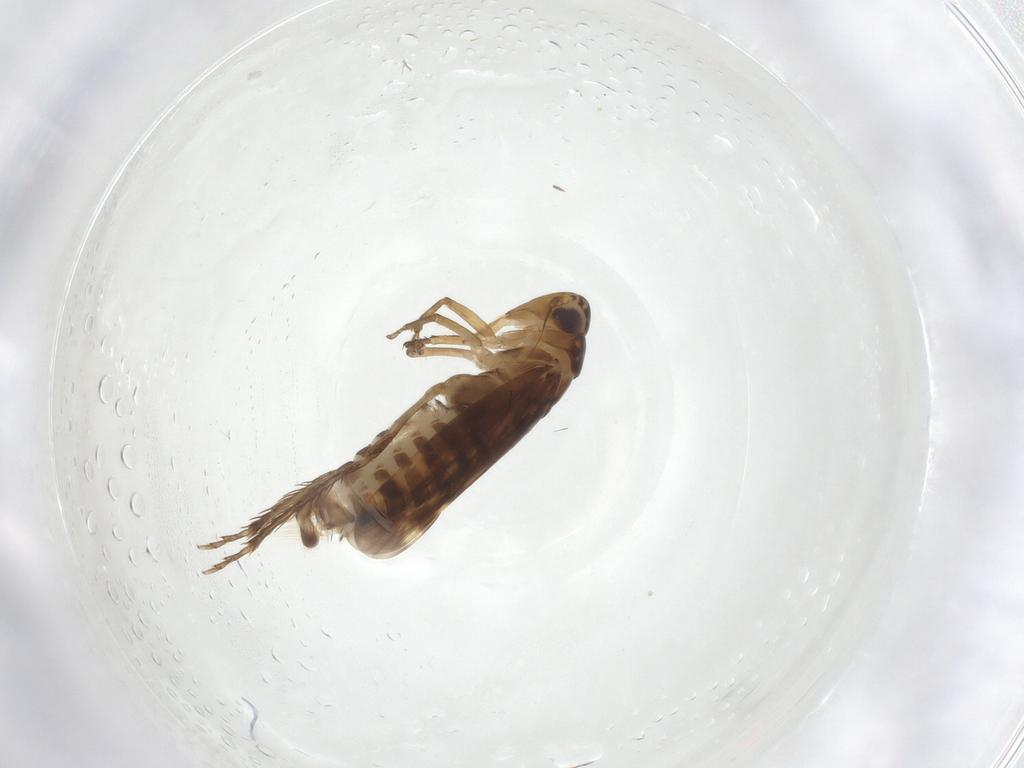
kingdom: Animalia
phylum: Arthropoda
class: Insecta
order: Hemiptera
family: Cicadellidae
